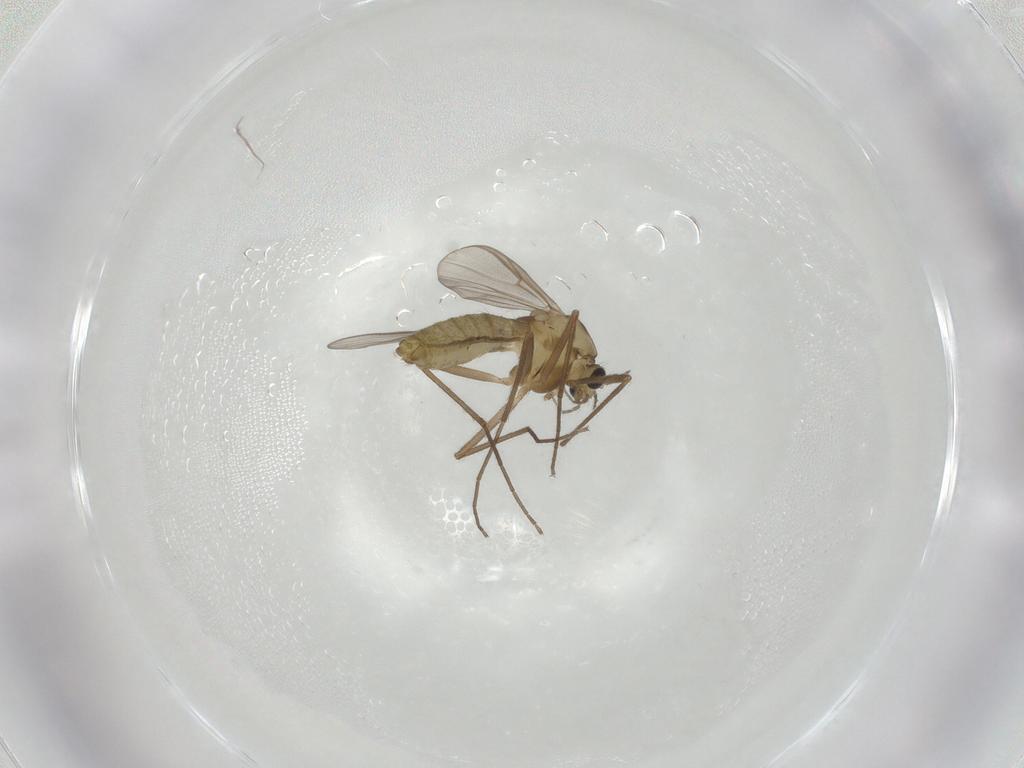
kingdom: Animalia
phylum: Arthropoda
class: Insecta
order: Diptera
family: Chironomidae
